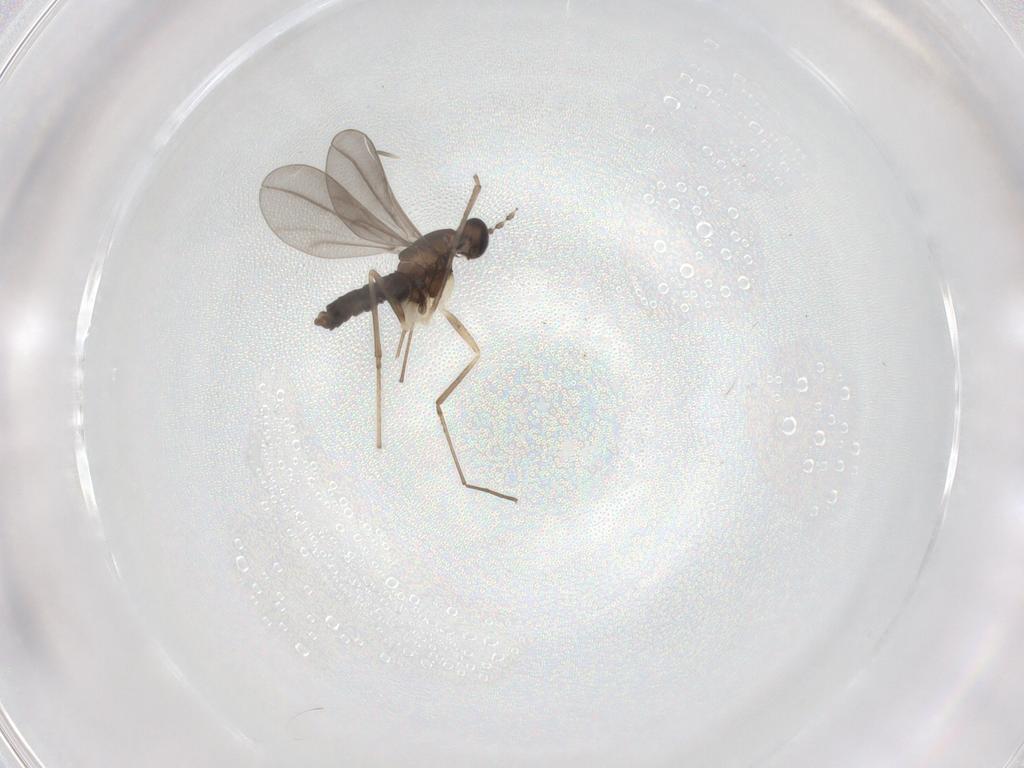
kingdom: Animalia
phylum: Arthropoda
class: Insecta
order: Diptera
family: Cecidomyiidae
